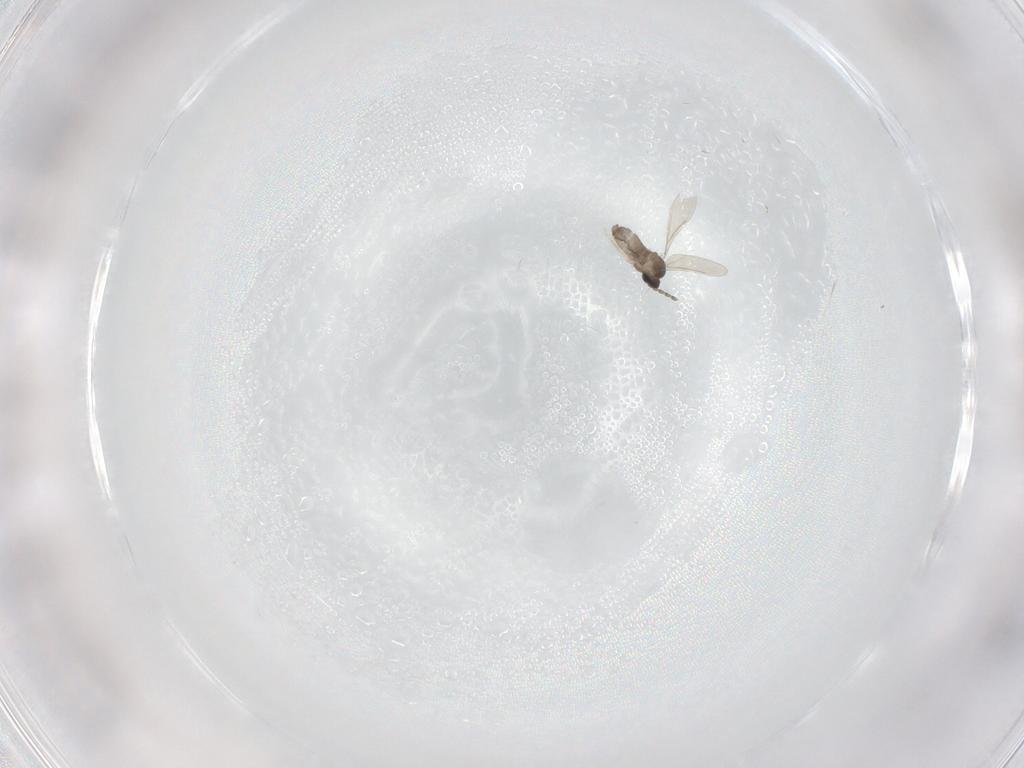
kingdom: Animalia
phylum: Arthropoda
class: Insecta
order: Diptera
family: Cecidomyiidae
